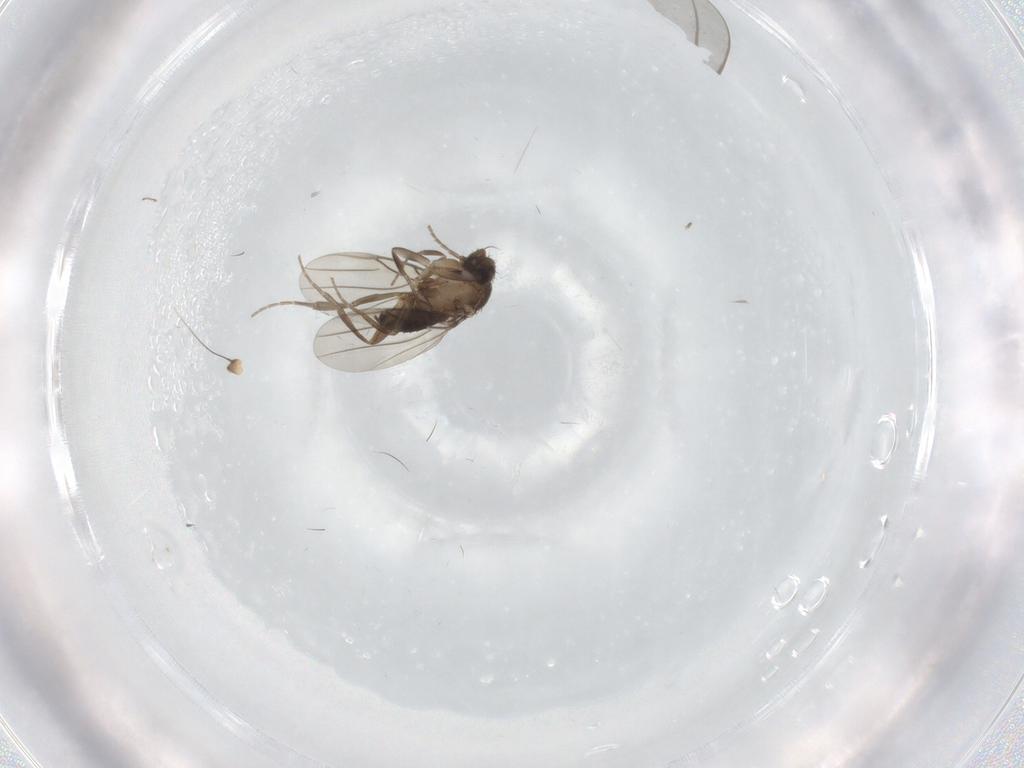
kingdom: Animalia
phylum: Arthropoda
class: Insecta
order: Diptera
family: Phoridae
